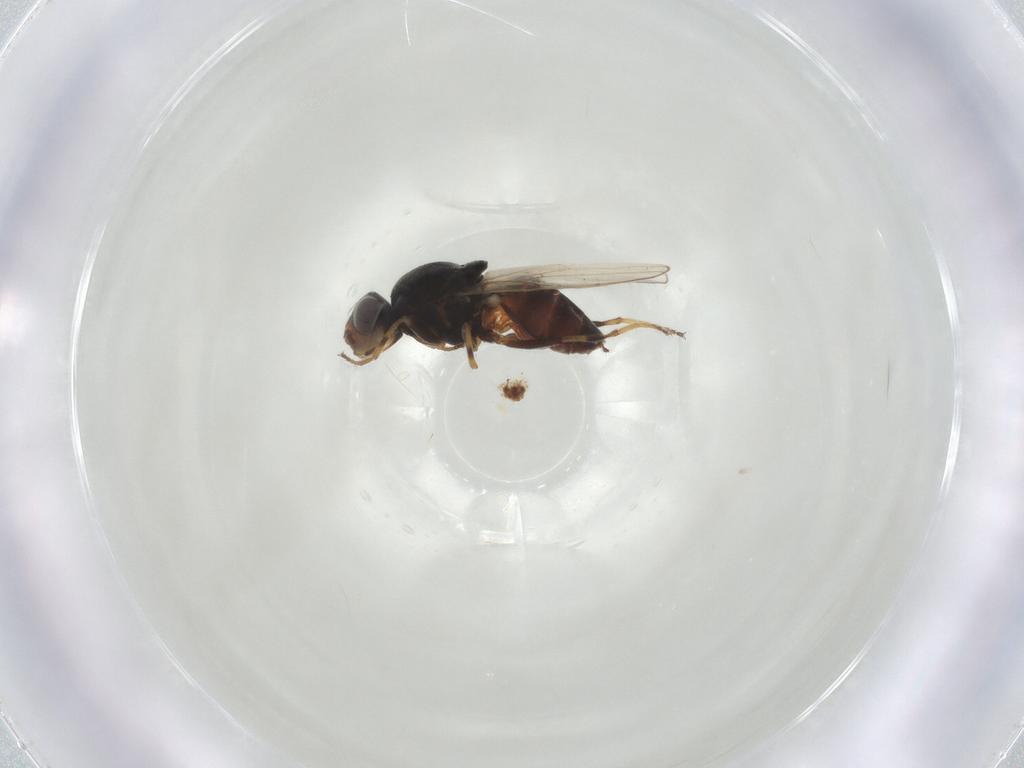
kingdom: Animalia
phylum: Arthropoda
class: Insecta
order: Diptera
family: Chloropidae
